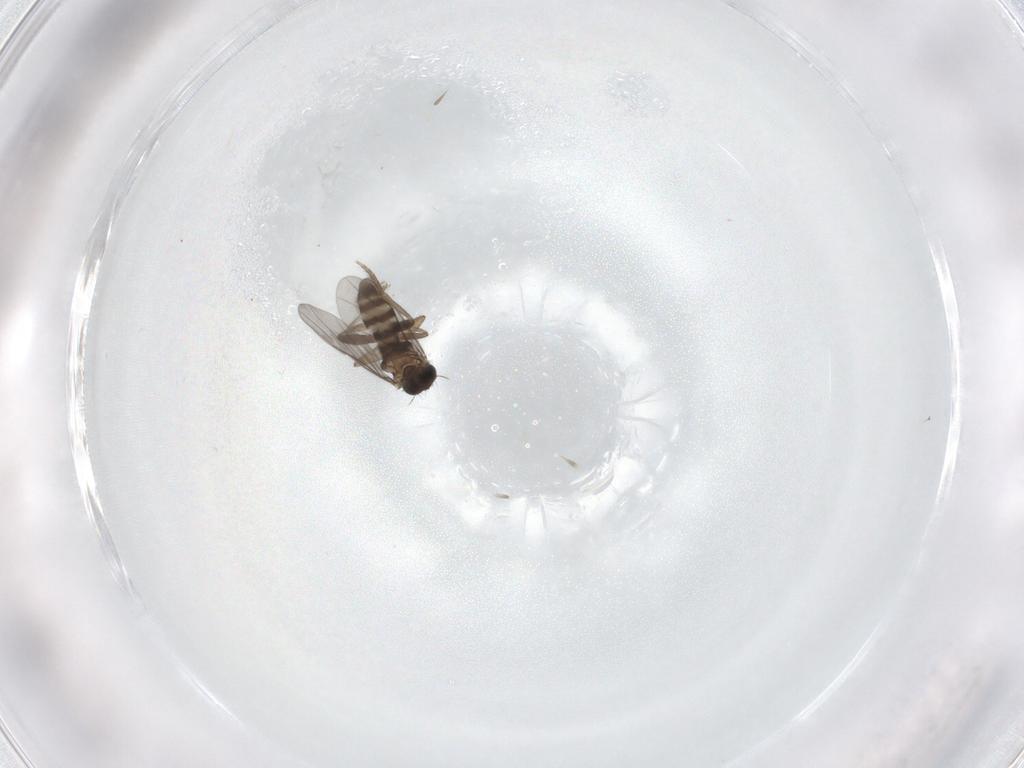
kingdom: Animalia
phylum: Arthropoda
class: Insecta
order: Diptera
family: Cecidomyiidae
